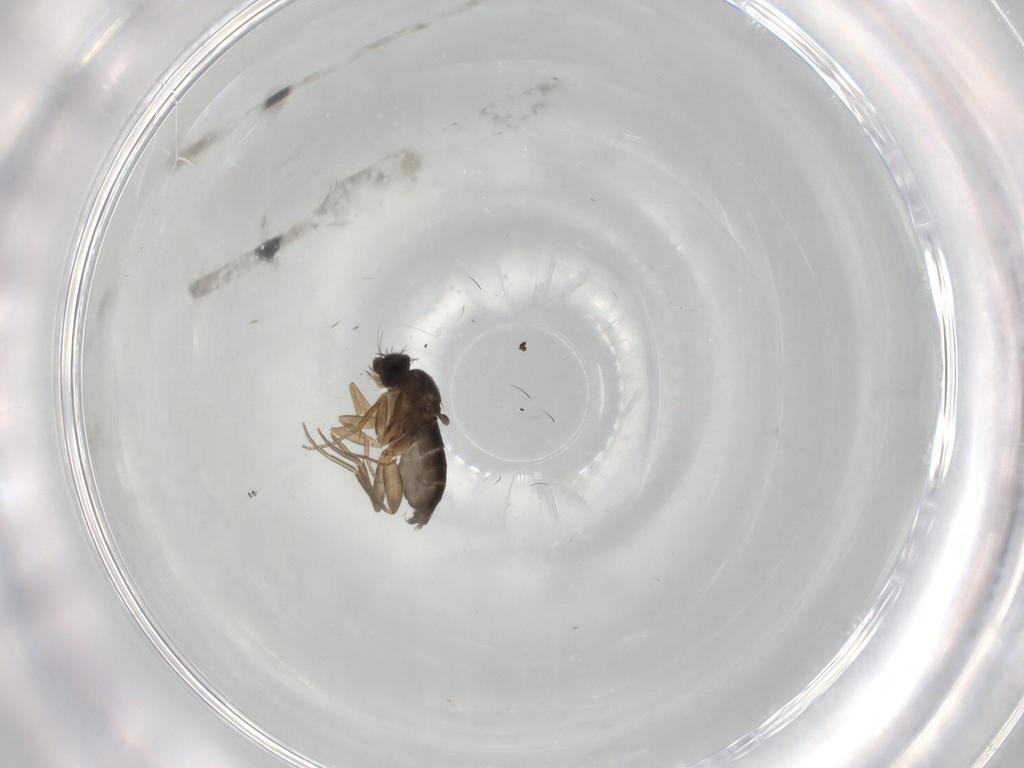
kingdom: Animalia
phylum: Arthropoda
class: Insecta
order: Diptera
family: Phoridae
